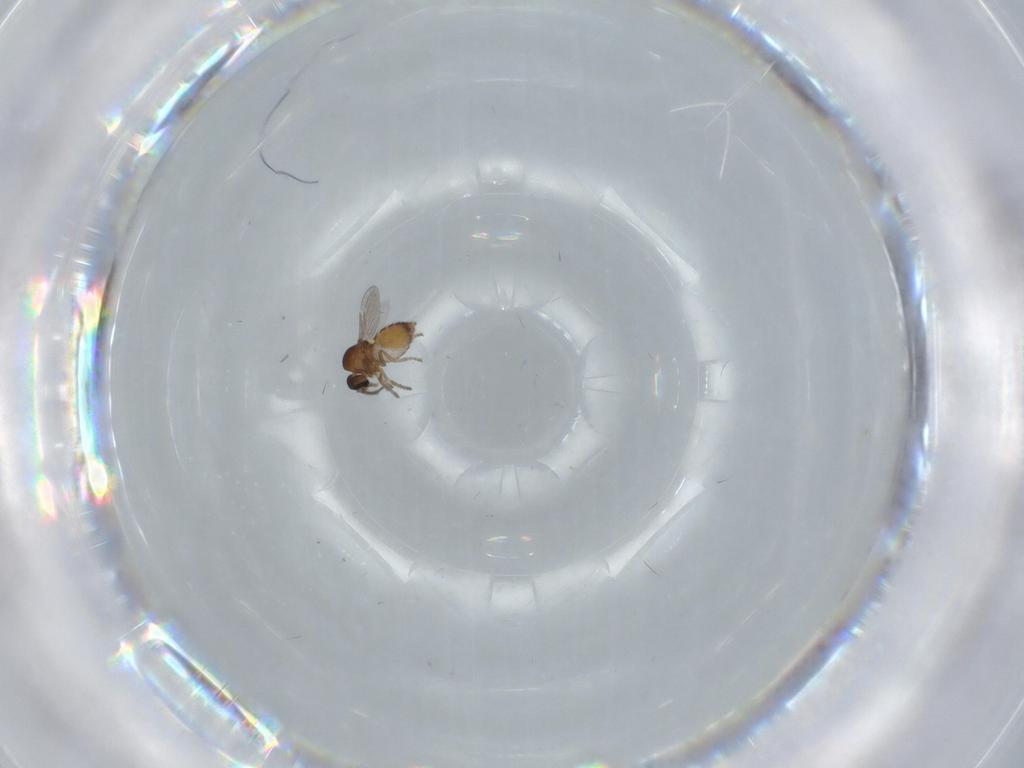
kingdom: Animalia
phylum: Arthropoda
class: Insecta
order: Diptera
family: Ceratopogonidae
